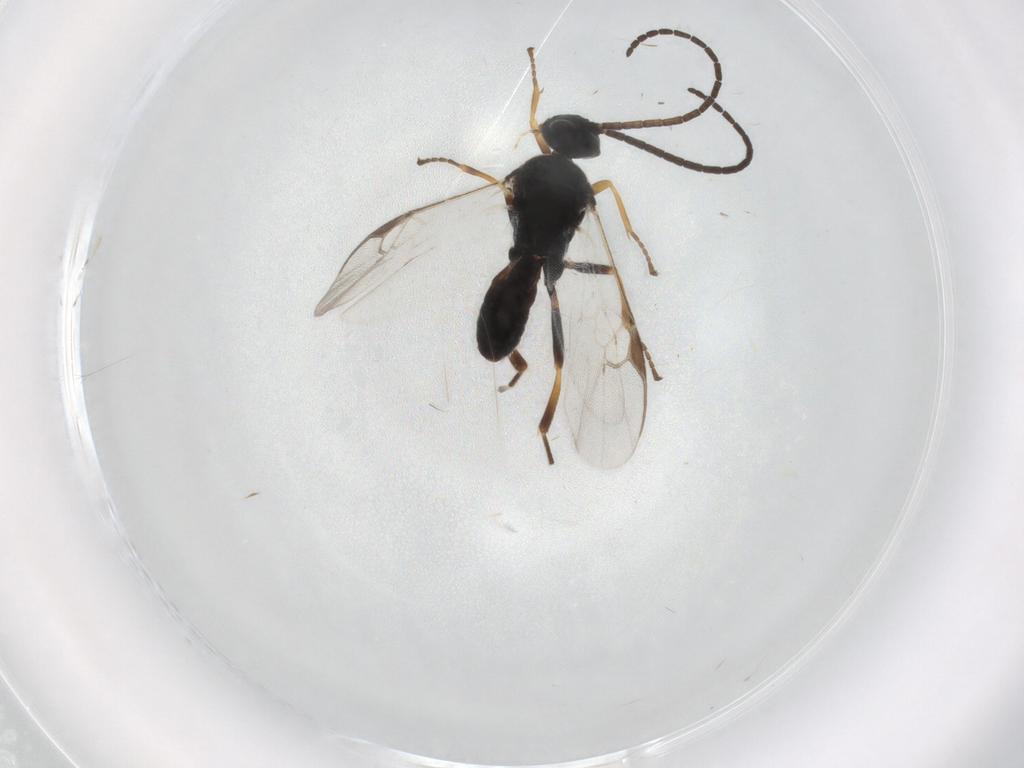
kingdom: Animalia
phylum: Arthropoda
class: Insecta
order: Hymenoptera
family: Braconidae
